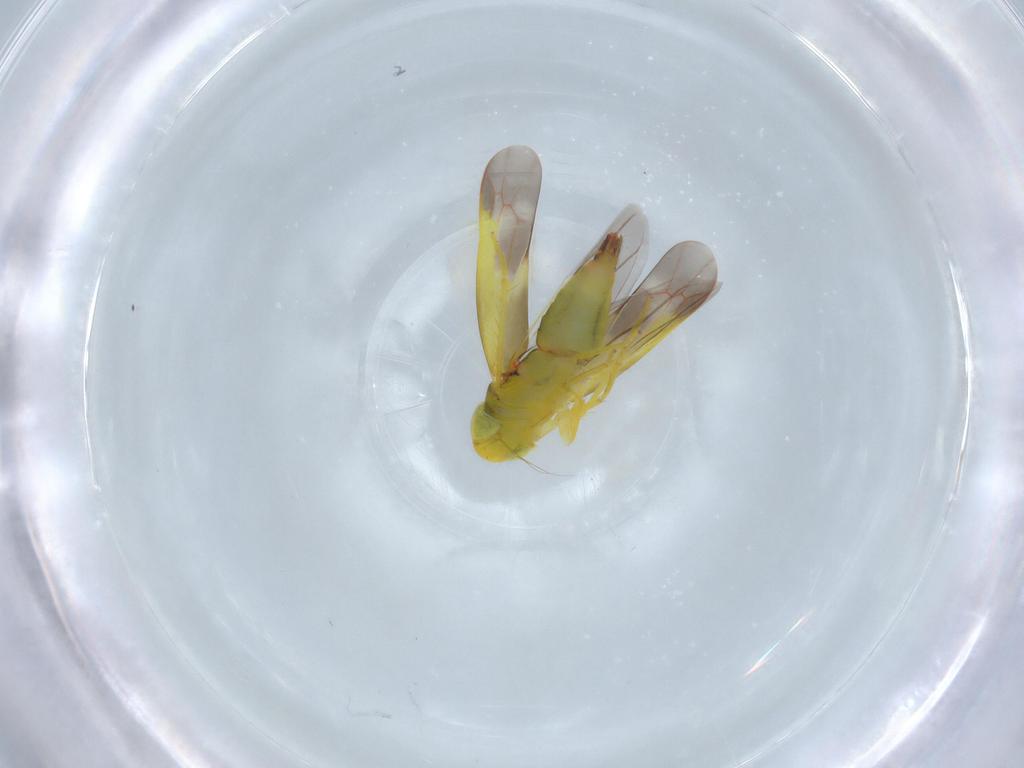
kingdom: Animalia
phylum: Arthropoda
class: Insecta
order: Hemiptera
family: Cicadellidae
